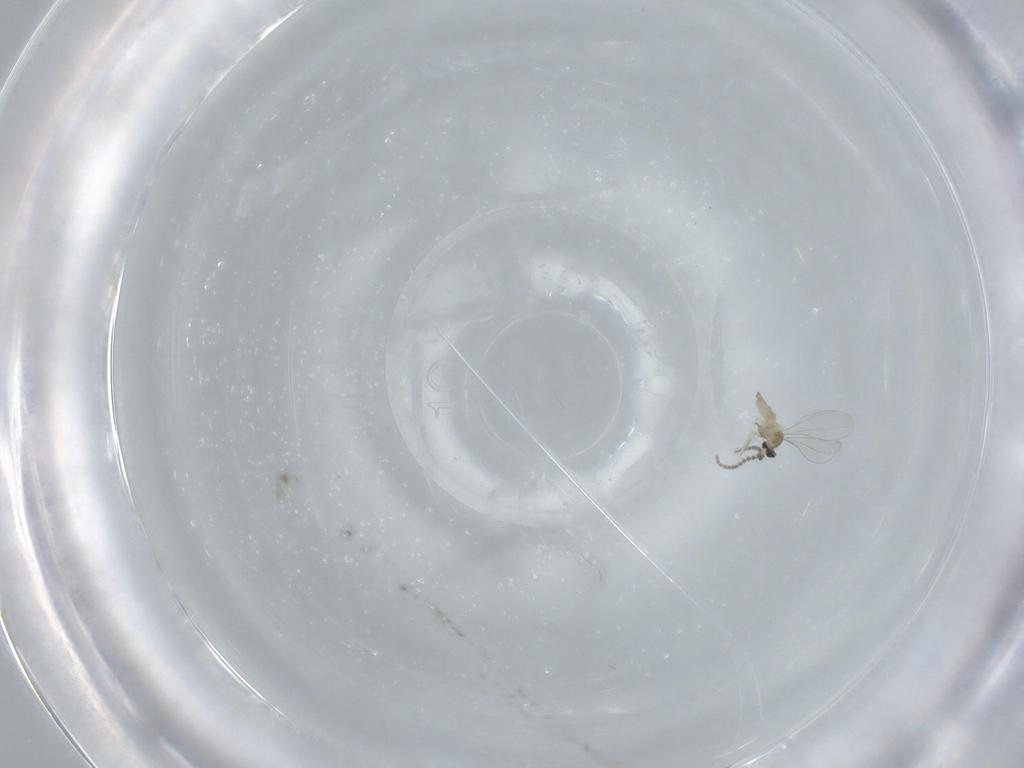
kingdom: Animalia
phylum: Arthropoda
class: Insecta
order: Diptera
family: Cecidomyiidae
